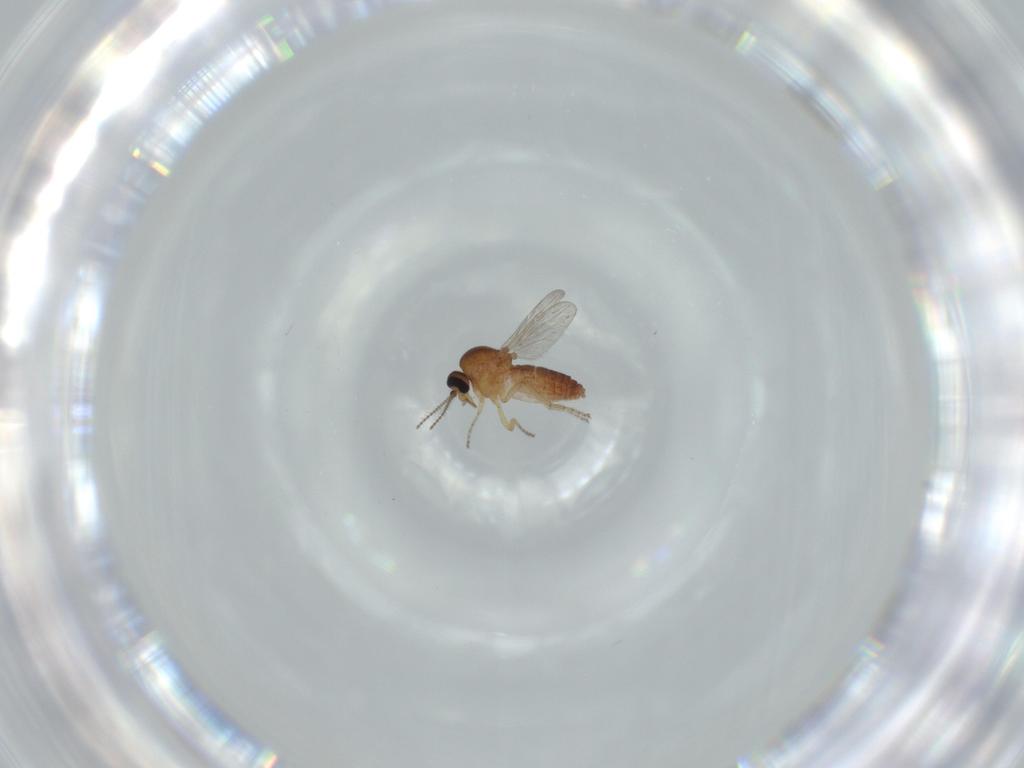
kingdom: Animalia
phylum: Arthropoda
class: Insecta
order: Diptera
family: Ceratopogonidae
